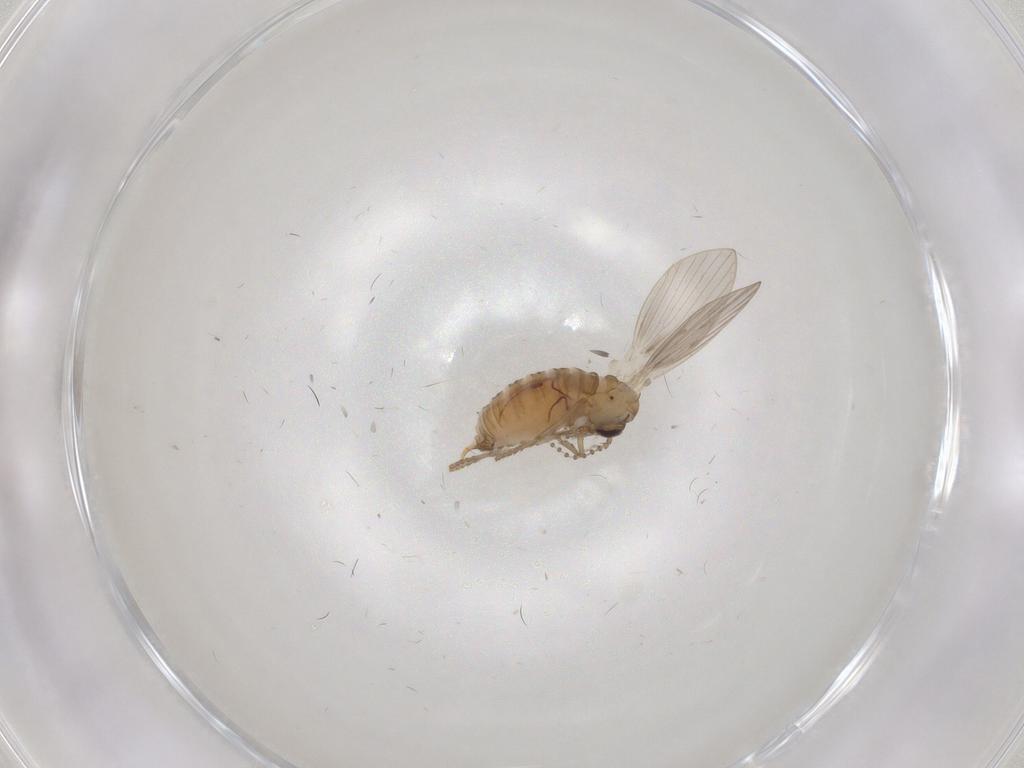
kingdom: Animalia
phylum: Arthropoda
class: Insecta
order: Diptera
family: Psychodidae
